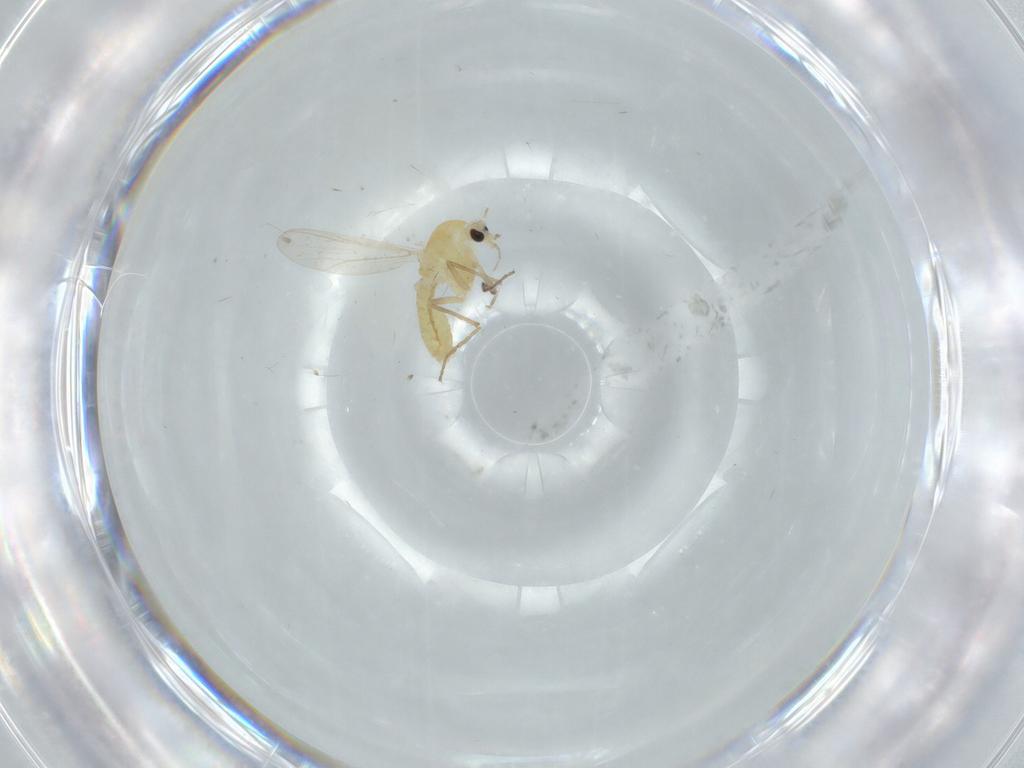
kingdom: Animalia
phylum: Arthropoda
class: Insecta
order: Diptera
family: Chironomidae
